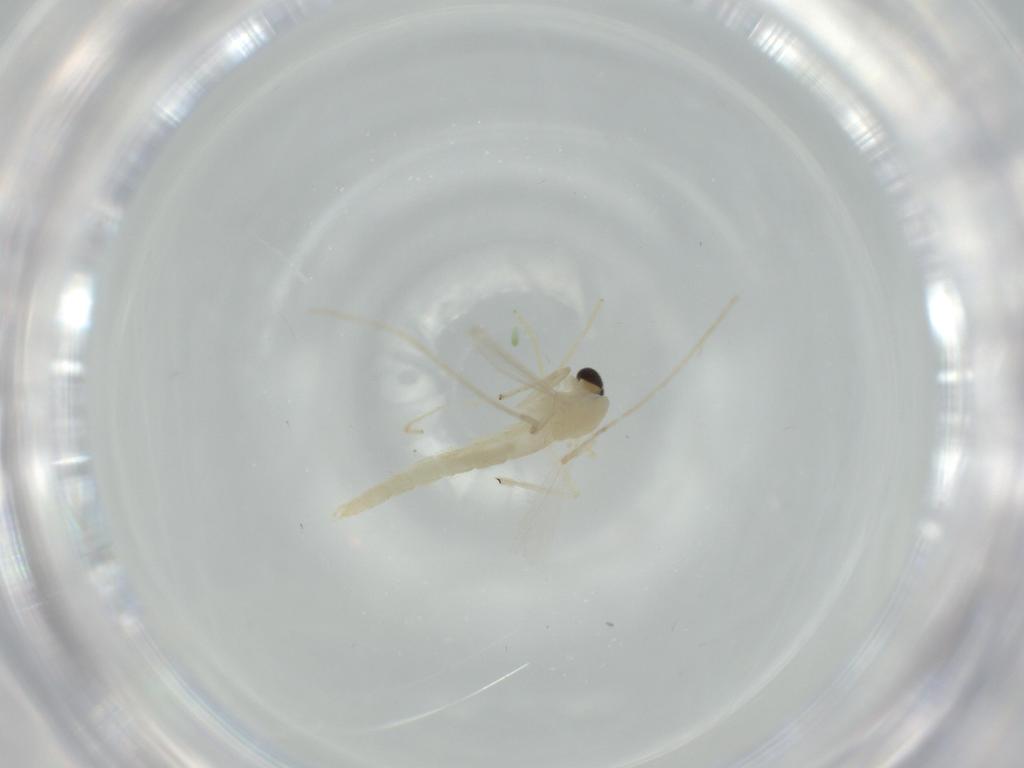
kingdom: Animalia
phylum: Arthropoda
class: Insecta
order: Diptera
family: Chironomidae
